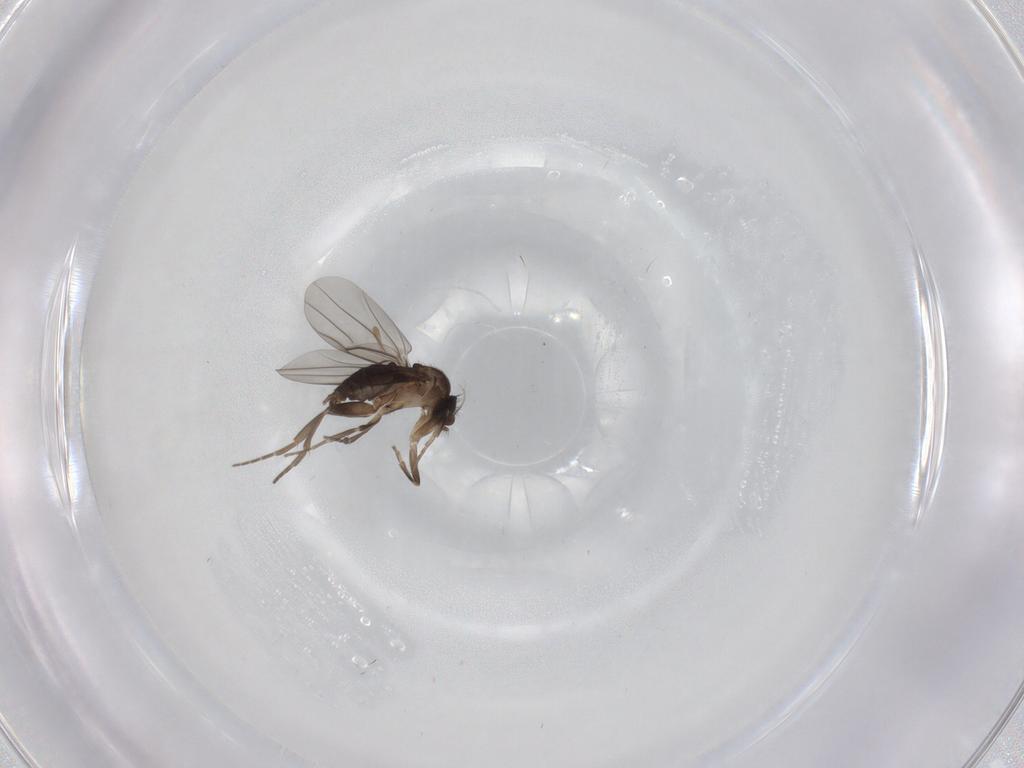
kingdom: Animalia
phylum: Arthropoda
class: Insecta
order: Diptera
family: Phoridae
